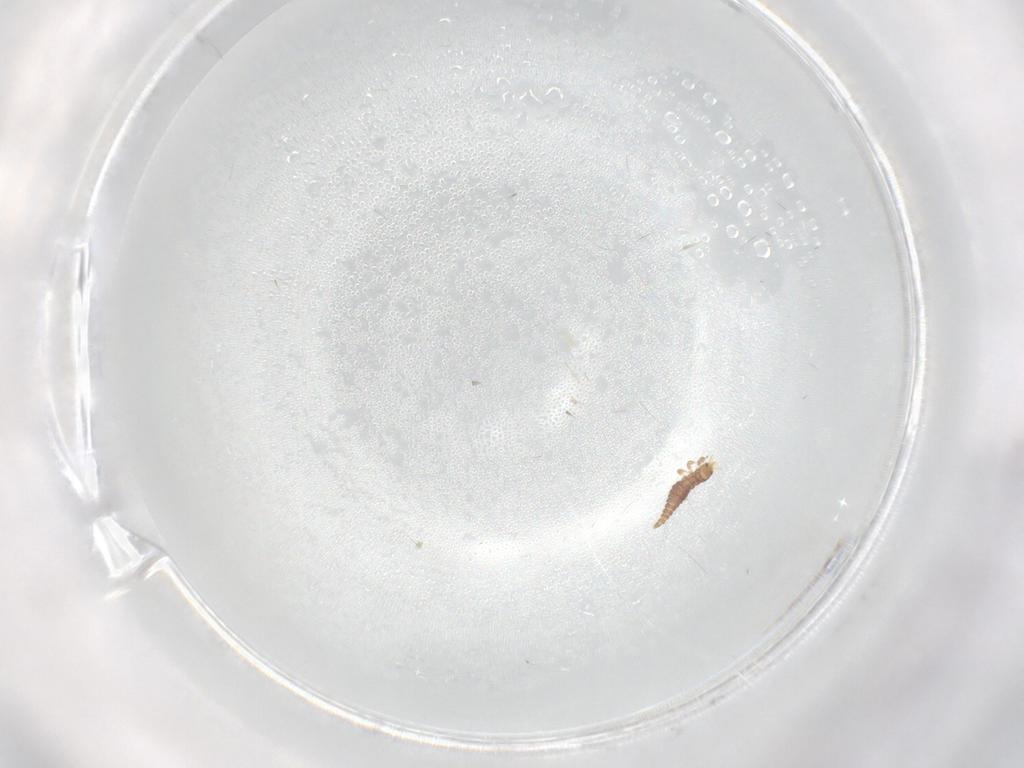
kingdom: Animalia
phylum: Arthropoda
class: Insecta
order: Neuroptera
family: Mantispidae
